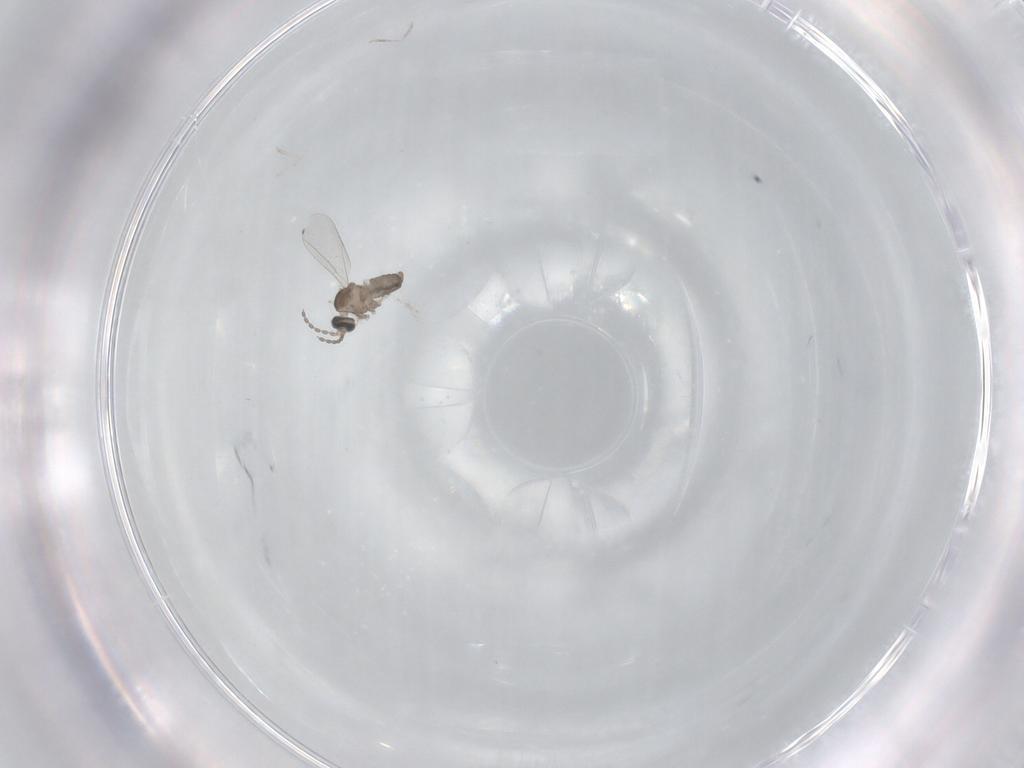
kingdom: Animalia
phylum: Arthropoda
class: Insecta
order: Diptera
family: Cecidomyiidae
